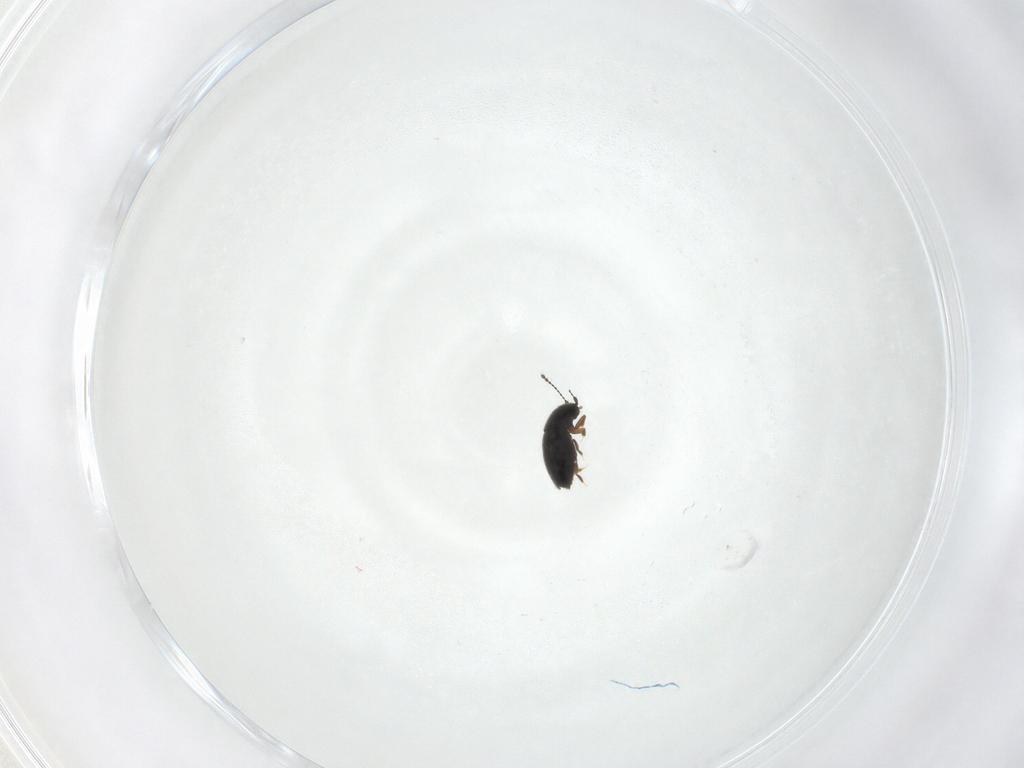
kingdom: Animalia
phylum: Arthropoda
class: Insecta
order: Coleoptera
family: Ptiliidae
